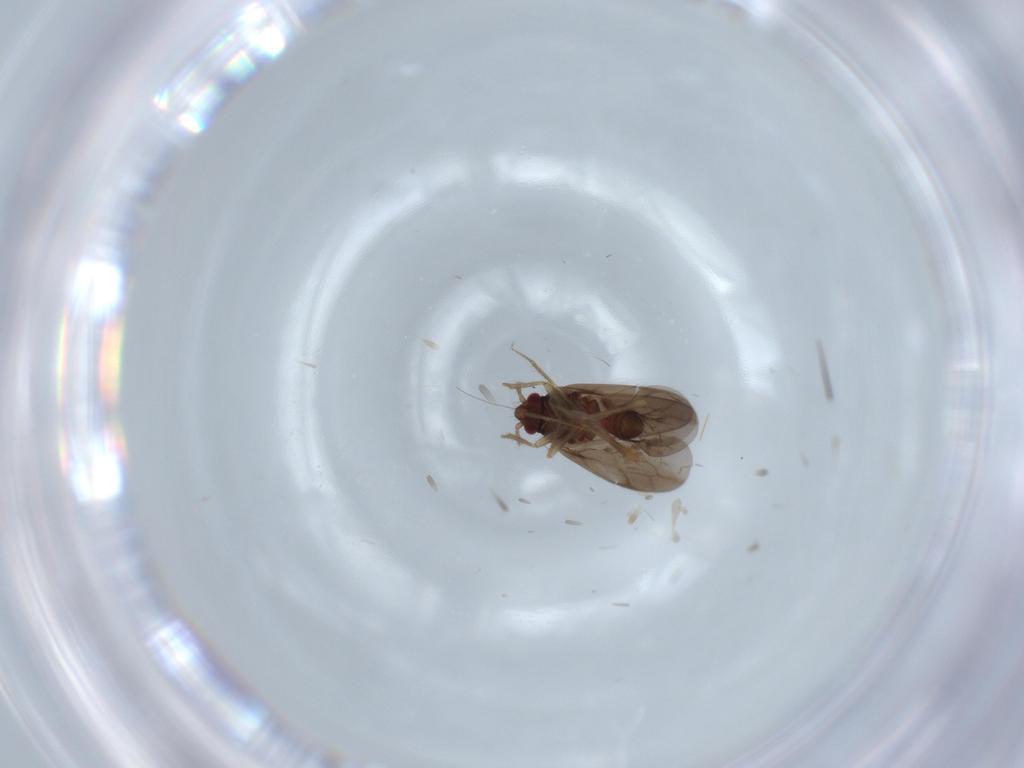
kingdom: Animalia
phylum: Arthropoda
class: Insecta
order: Hemiptera
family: Ceratocombidae
